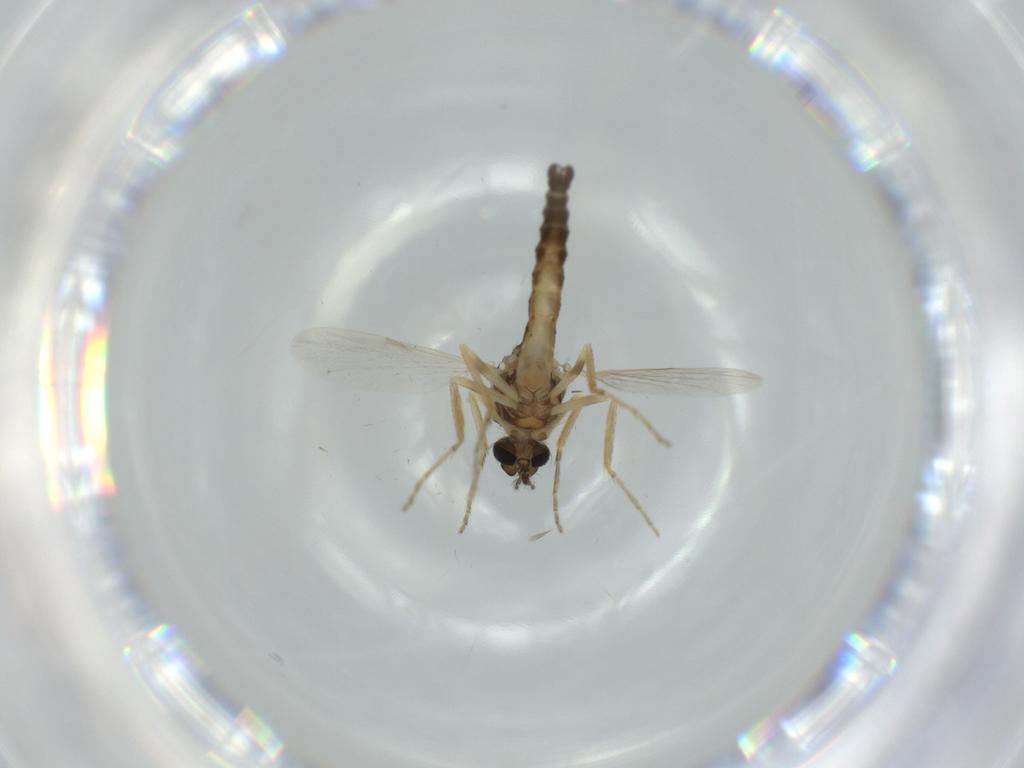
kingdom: Animalia
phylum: Arthropoda
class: Insecta
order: Diptera
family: Ceratopogonidae
